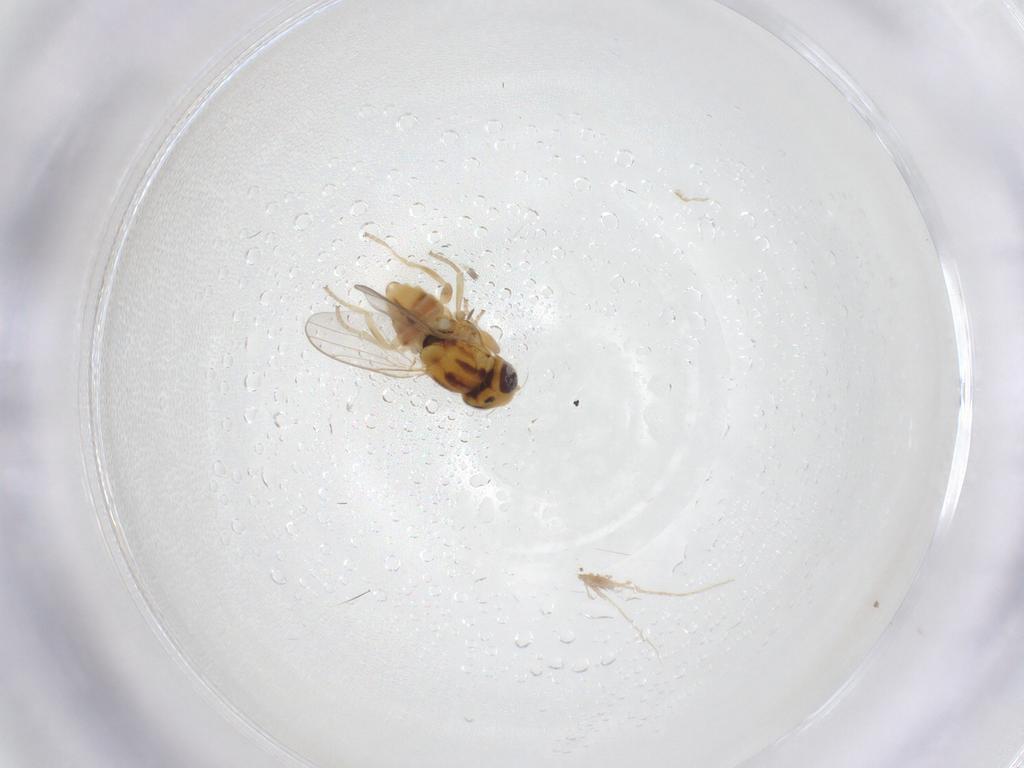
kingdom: Animalia
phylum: Arthropoda
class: Insecta
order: Diptera
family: Chloropidae
